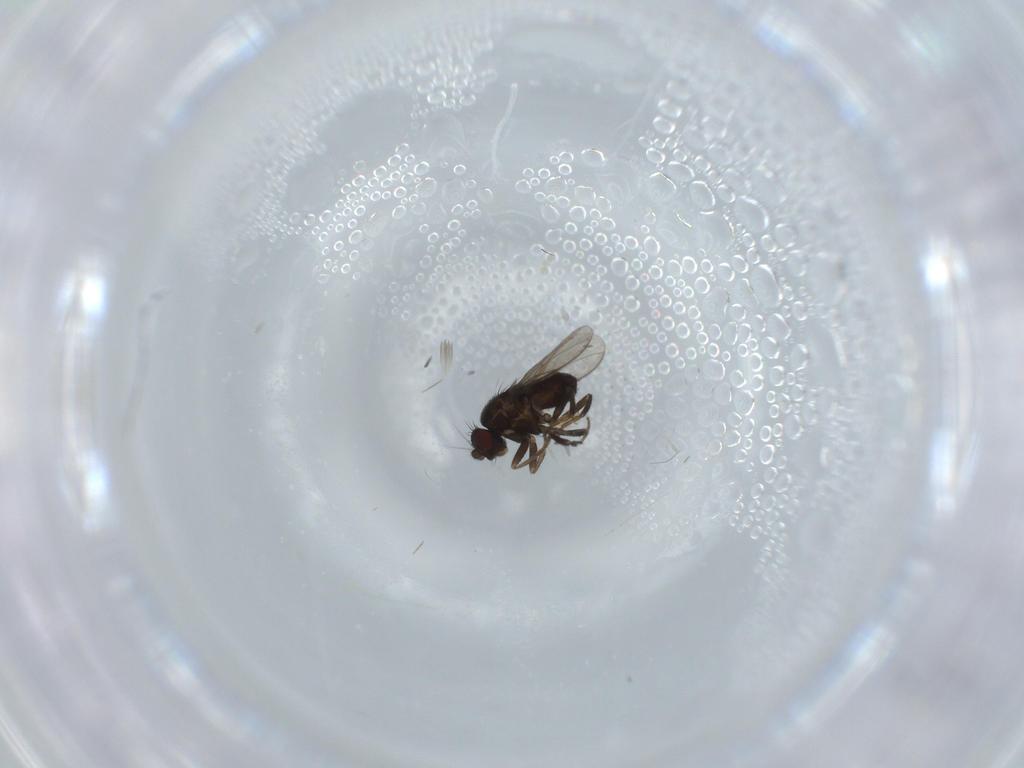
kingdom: Animalia
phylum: Arthropoda
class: Insecta
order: Diptera
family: Sphaeroceridae
